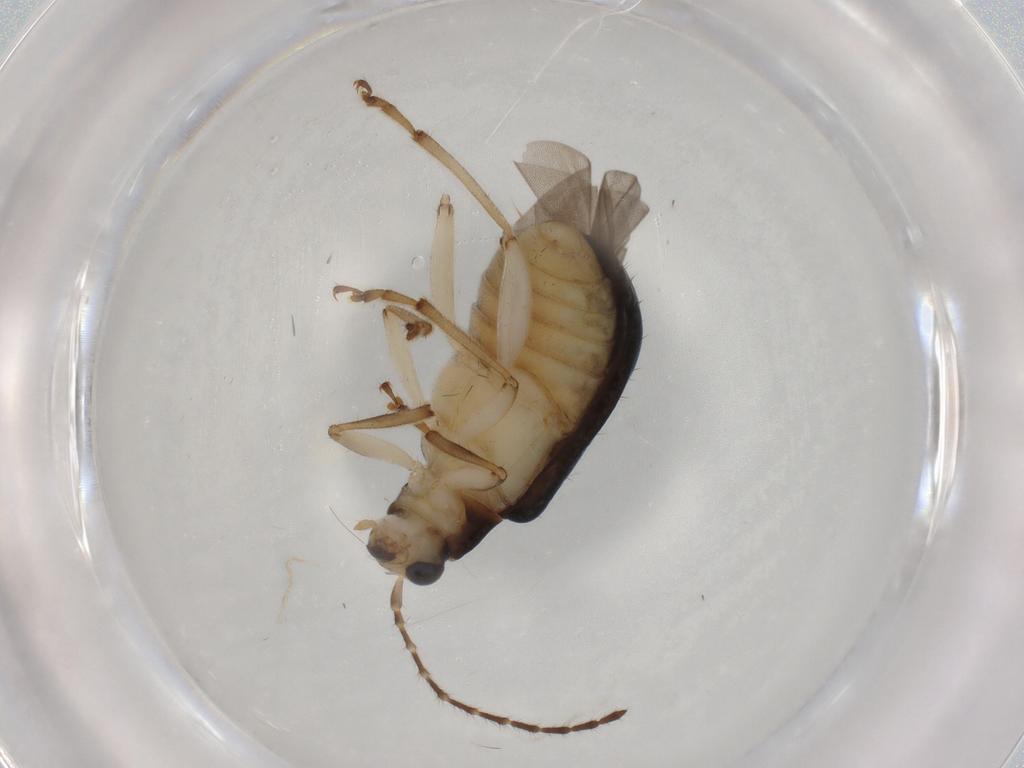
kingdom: Animalia
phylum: Arthropoda
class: Insecta
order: Coleoptera
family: Chrysomelidae
